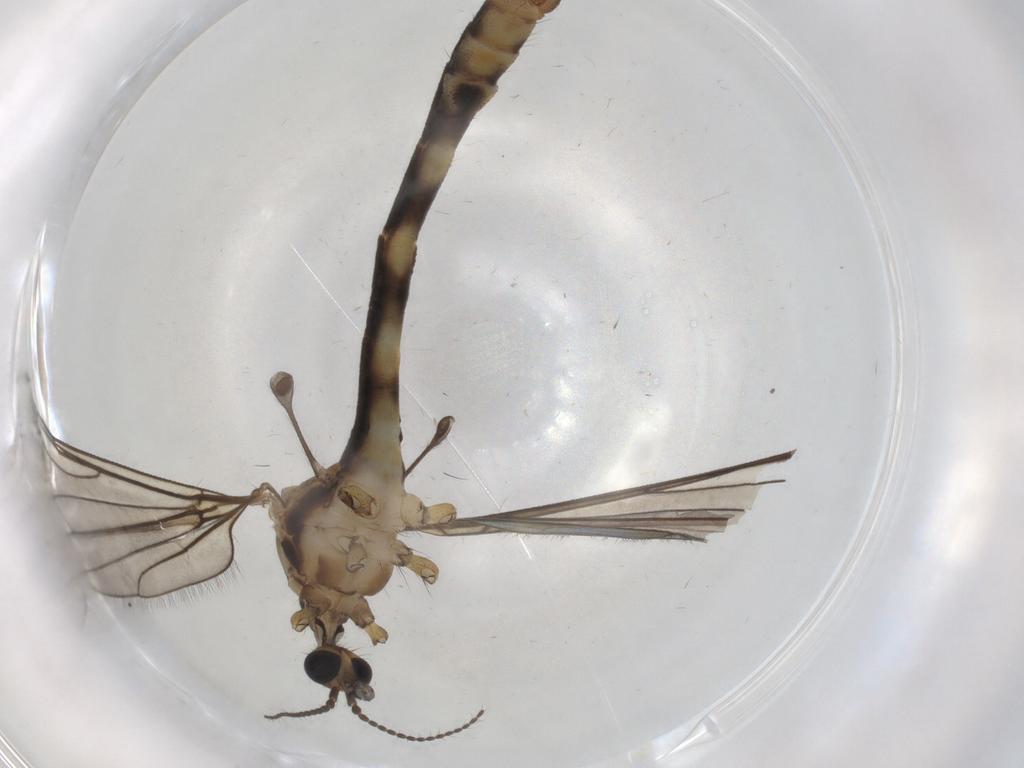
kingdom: Animalia
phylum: Arthropoda
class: Insecta
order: Diptera
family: Limoniidae
